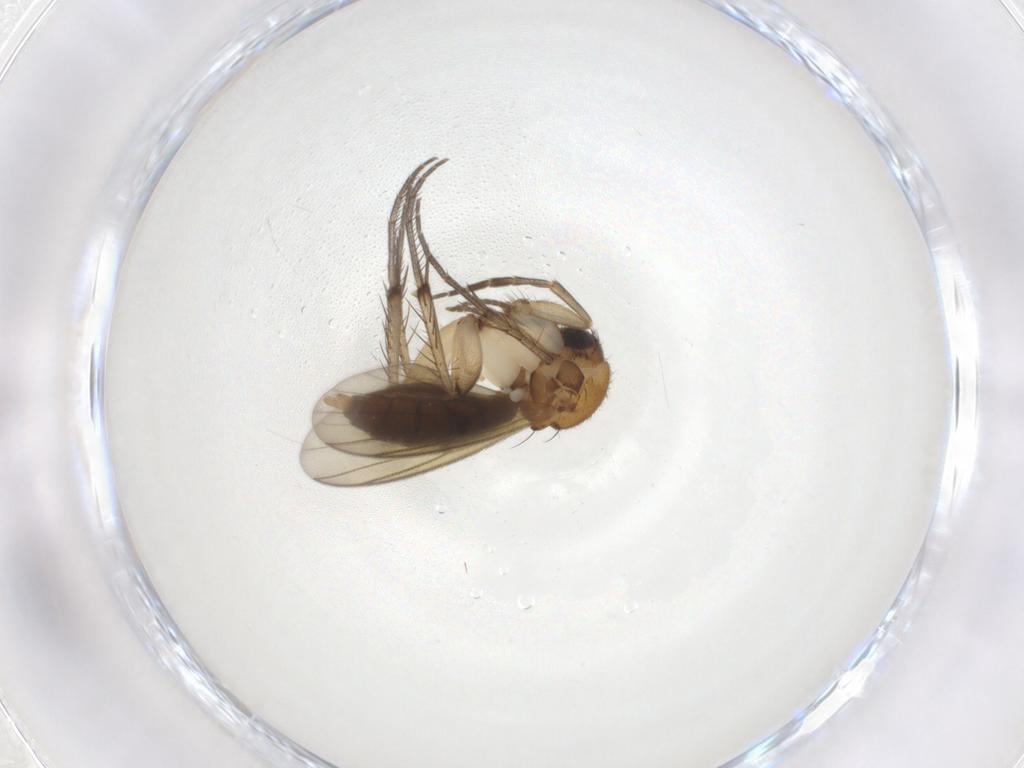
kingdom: Animalia
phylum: Arthropoda
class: Insecta
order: Diptera
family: Mycetophilidae
